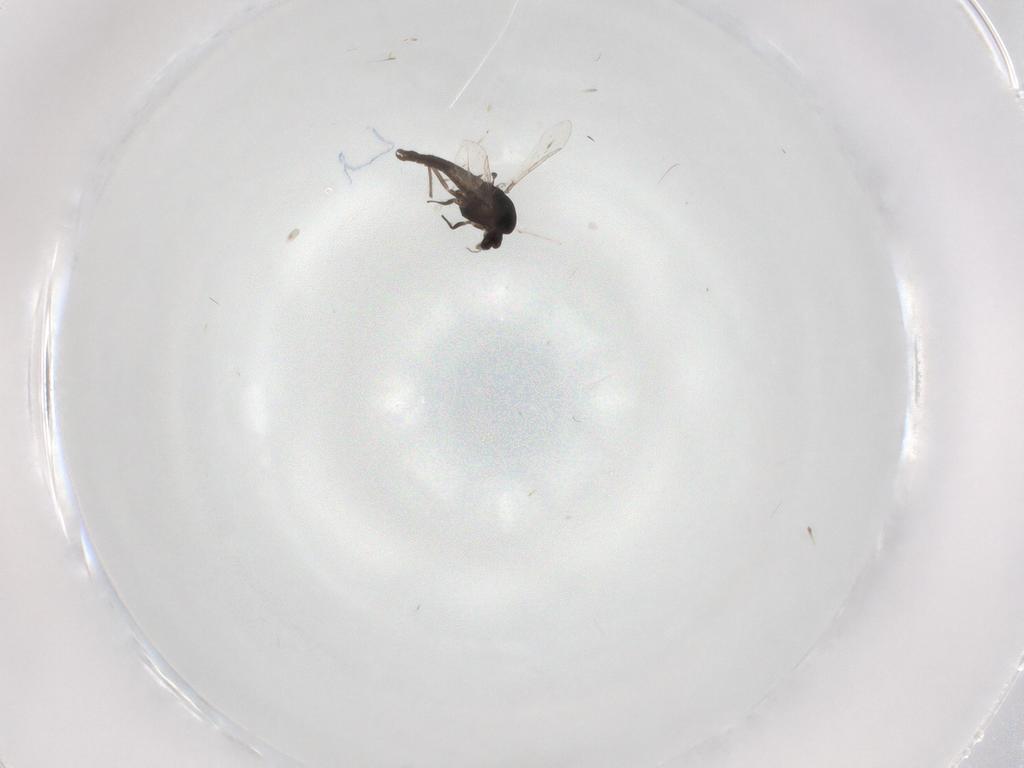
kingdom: Animalia
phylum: Arthropoda
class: Insecta
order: Diptera
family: Chironomidae
